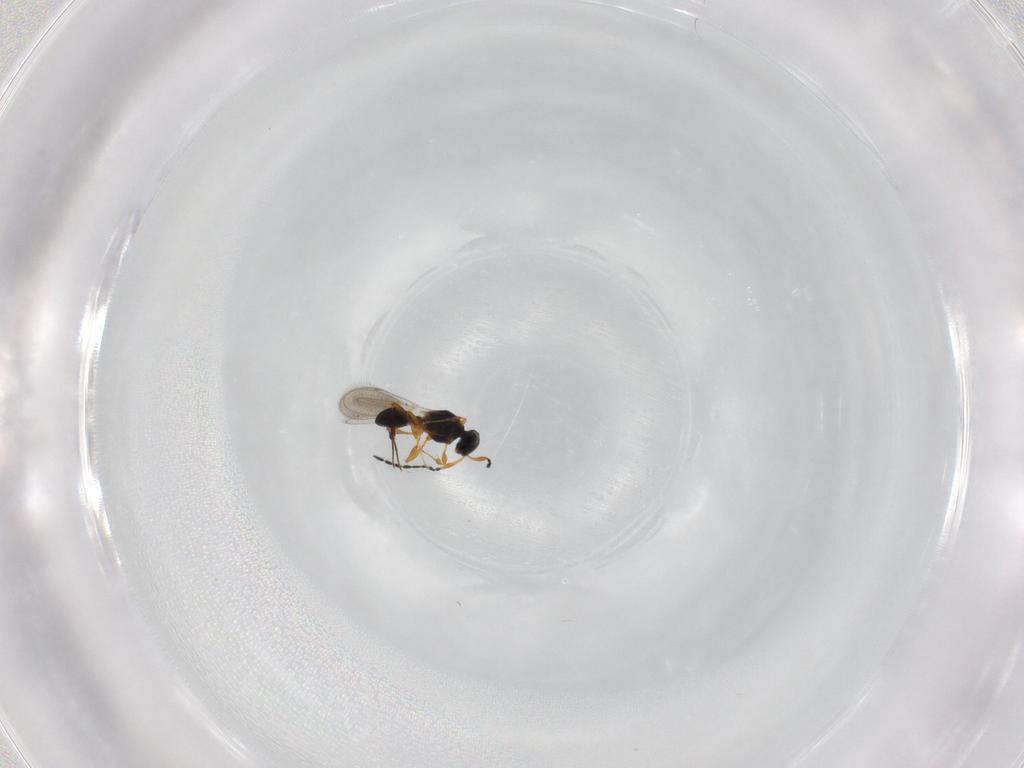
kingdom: Animalia
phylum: Arthropoda
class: Insecta
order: Hymenoptera
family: Platygastridae
